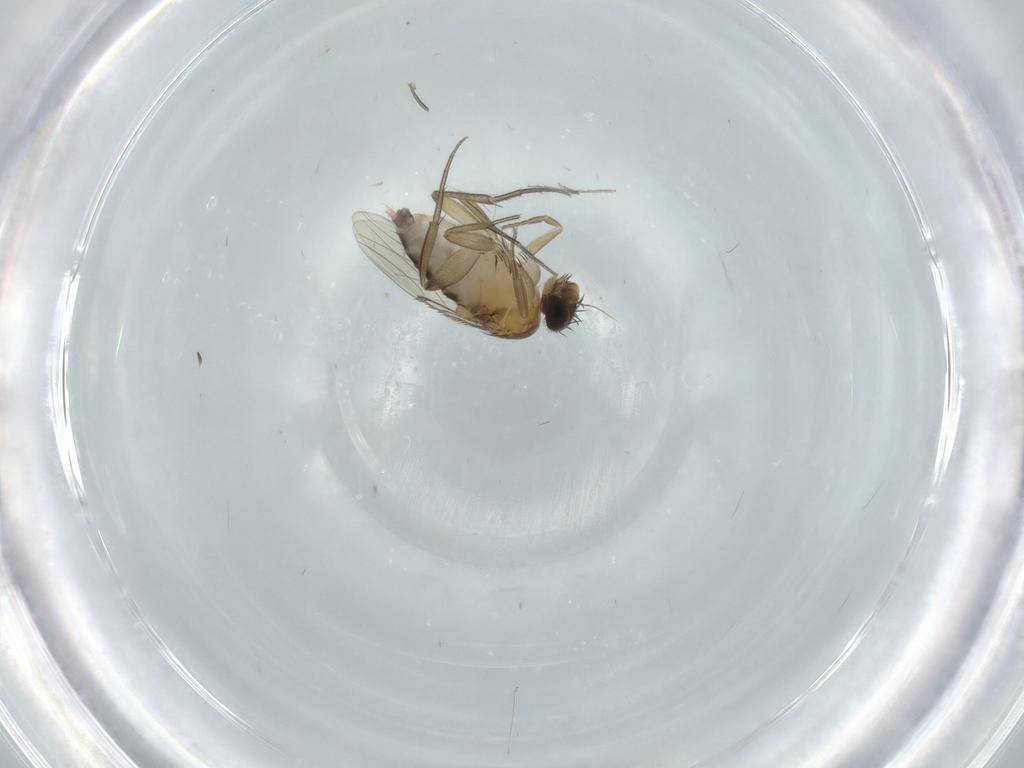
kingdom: Animalia
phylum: Arthropoda
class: Insecta
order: Diptera
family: Phoridae
